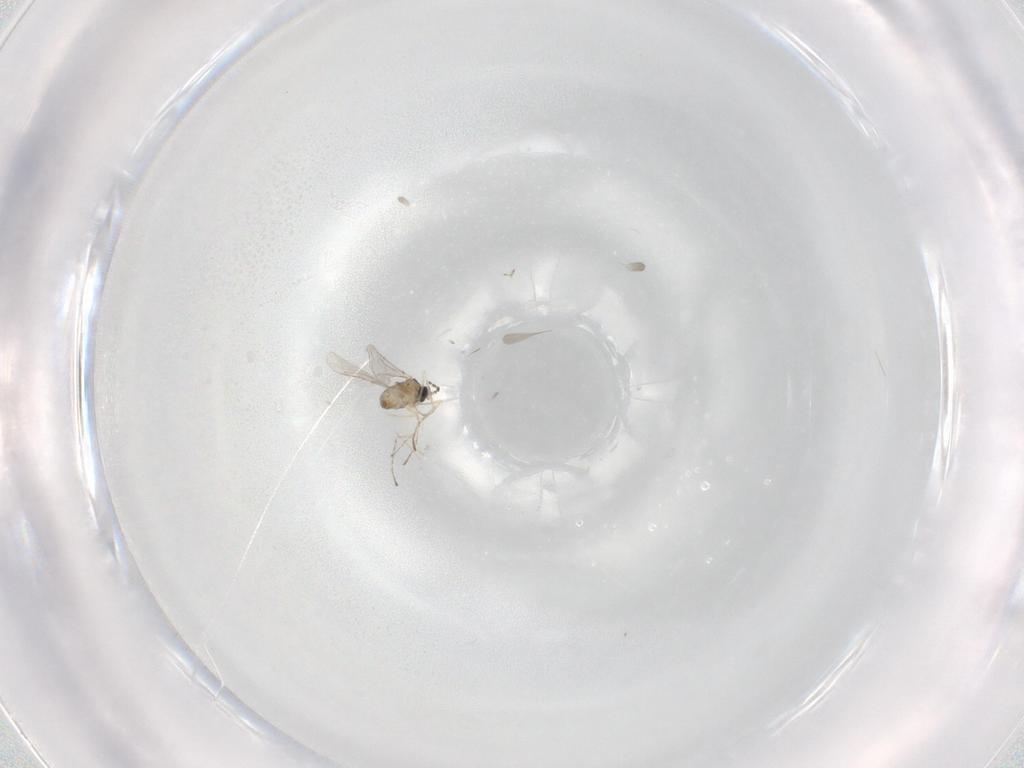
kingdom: Animalia
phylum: Arthropoda
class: Insecta
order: Diptera
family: Cecidomyiidae
